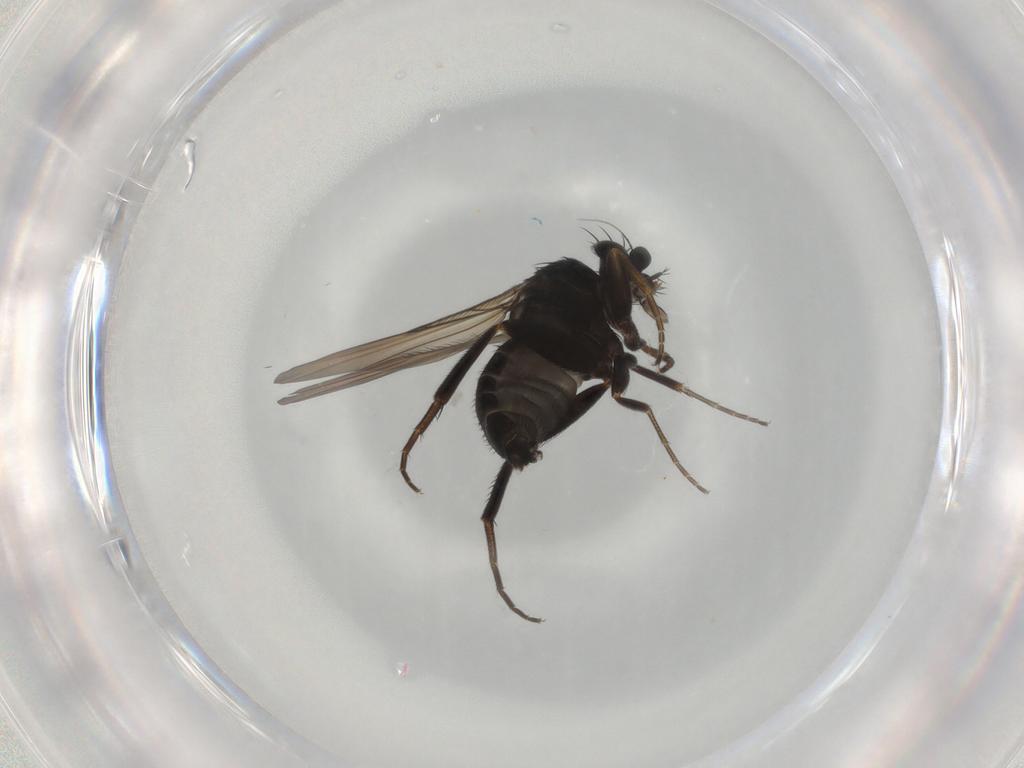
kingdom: Animalia
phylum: Arthropoda
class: Insecta
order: Diptera
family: Phoridae
